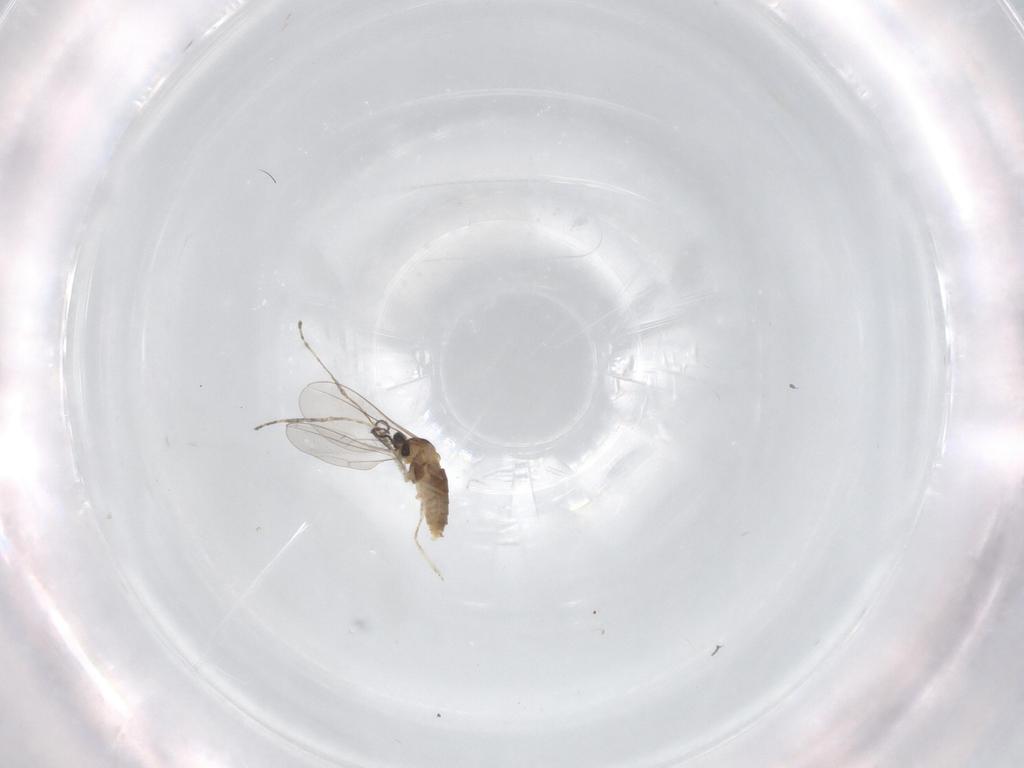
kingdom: Animalia
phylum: Arthropoda
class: Insecta
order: Diptera
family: Cecidomyiidae
